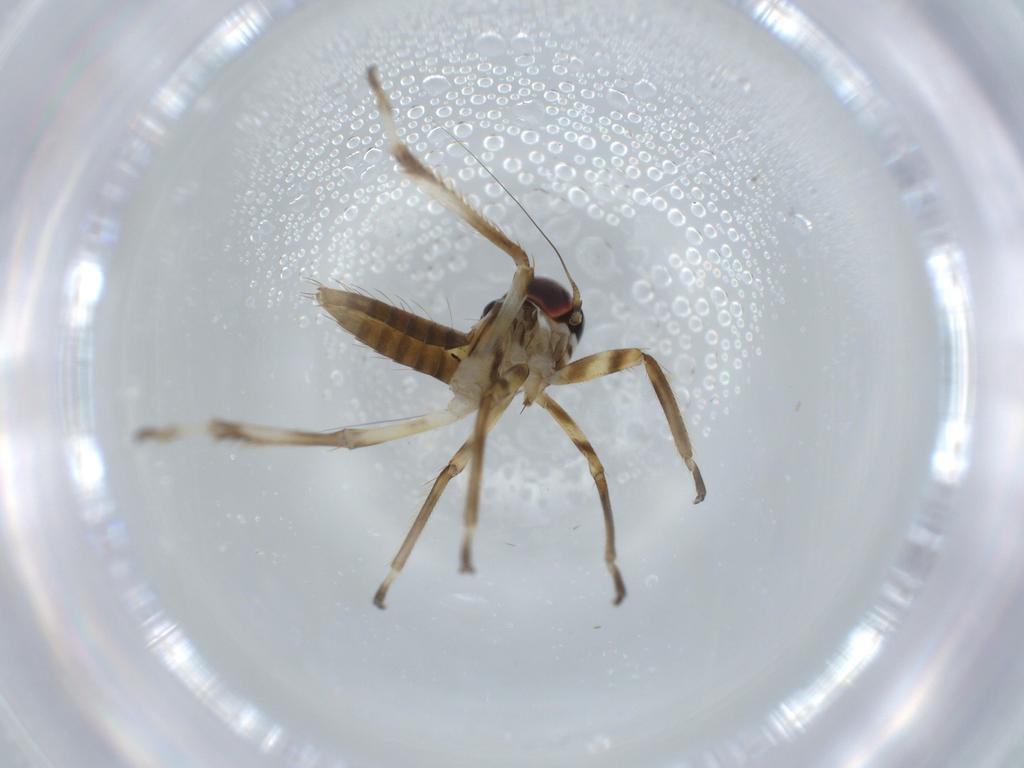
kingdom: Animalia
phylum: Arthropoda
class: Insecta
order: Hemiptera
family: Cicadellidae
